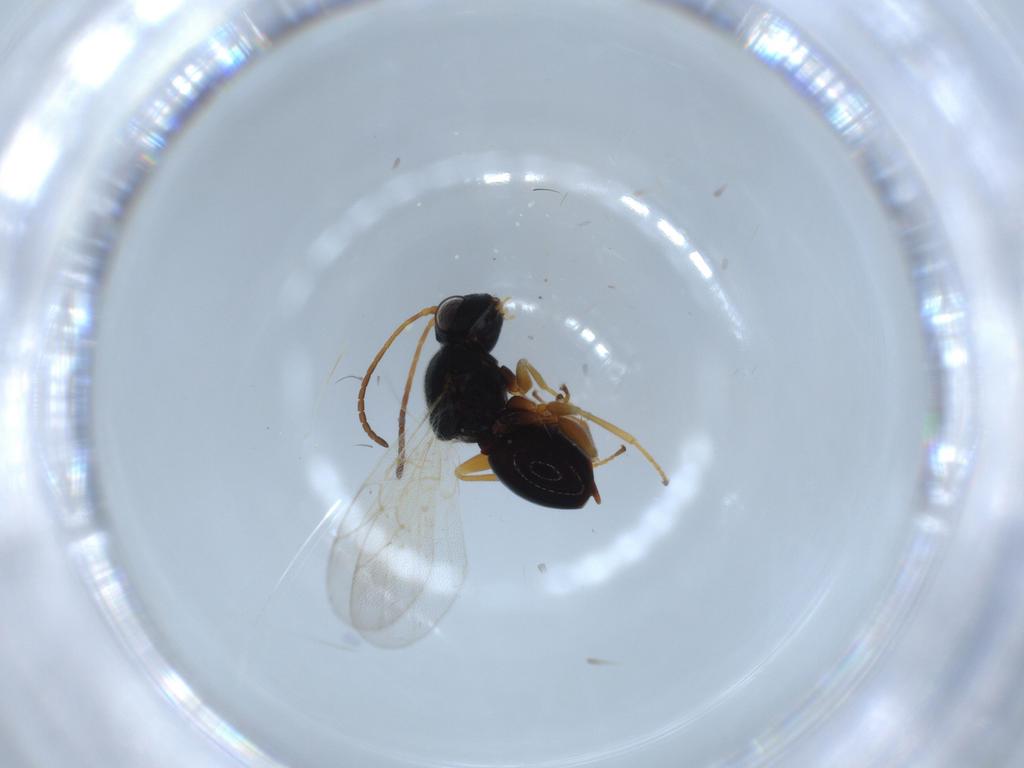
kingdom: Animalia
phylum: Arthropoda
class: Insecta
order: Hymenoptera
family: Cynipidae
